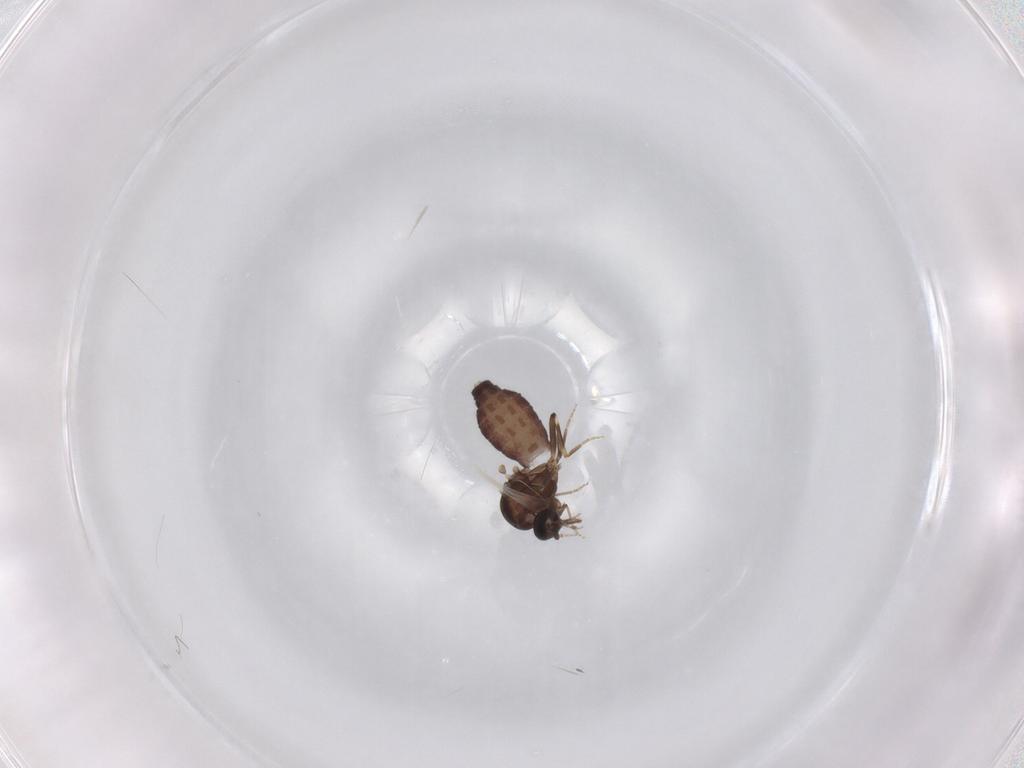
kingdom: Animalia
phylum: Arthropoda
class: Insecta
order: Diptera
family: Ceratopogonidae
